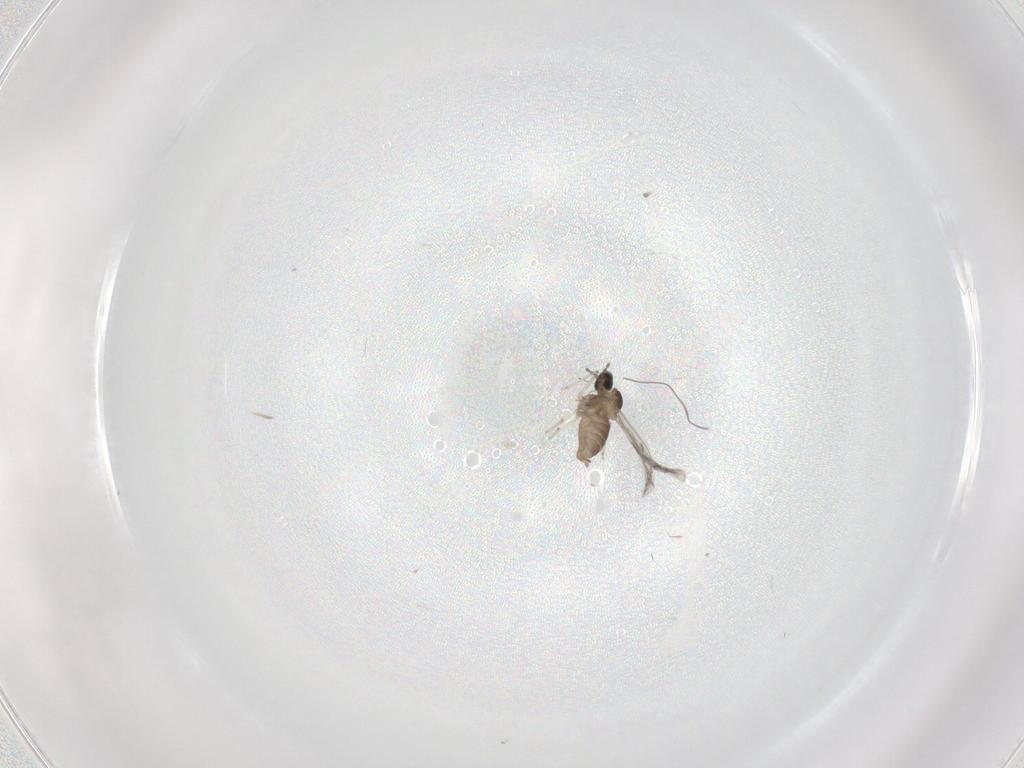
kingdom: Animalia
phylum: Arthropoda
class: Insecta
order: Diptera
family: Cecidomyiidae
